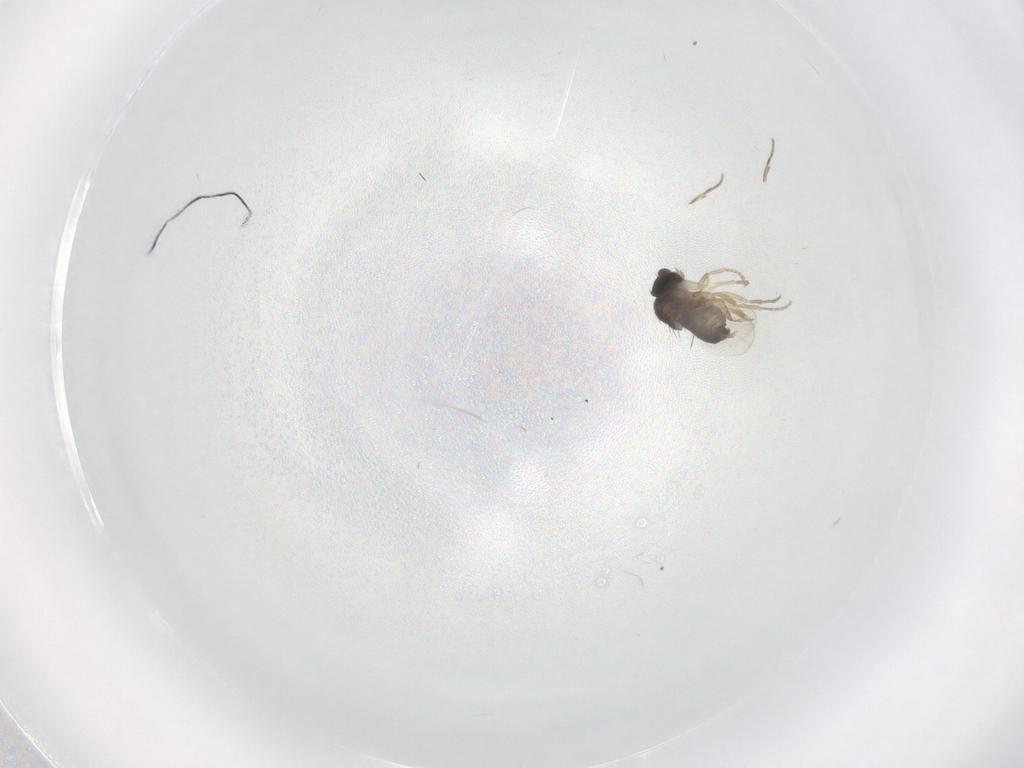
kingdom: Animalia
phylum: Arthropoda
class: Insecta
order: Diptera
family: Phoridae
